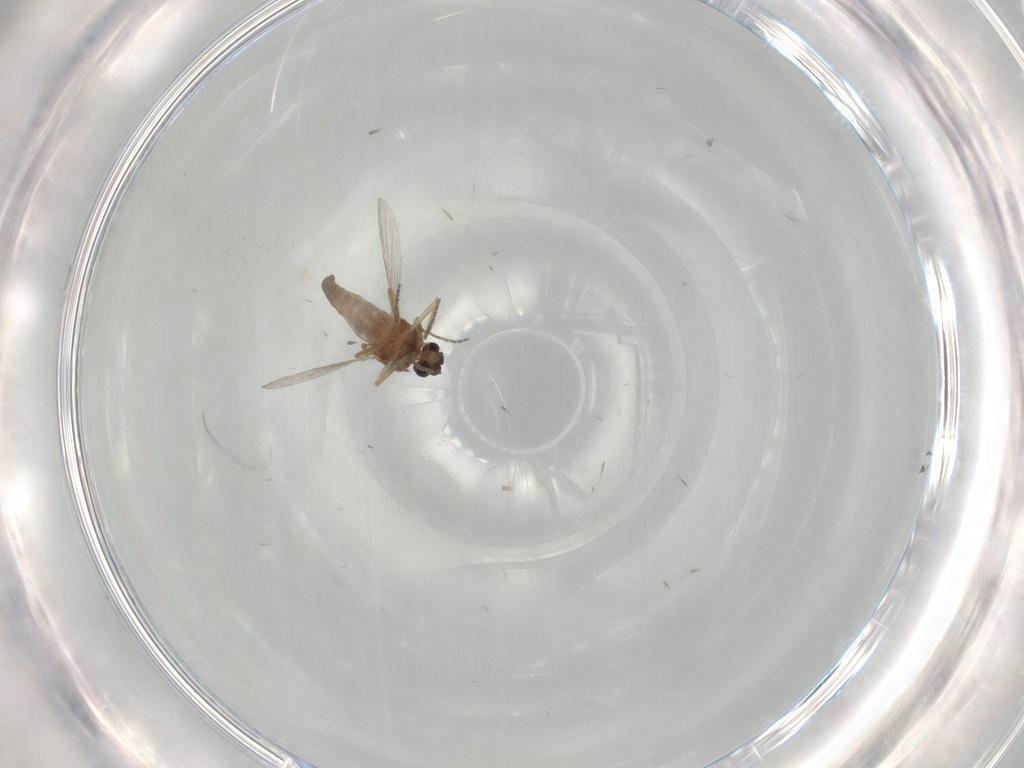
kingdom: Animalia
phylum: Arthropoda
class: Insecta
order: Diptera
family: Ceratopogonidae
